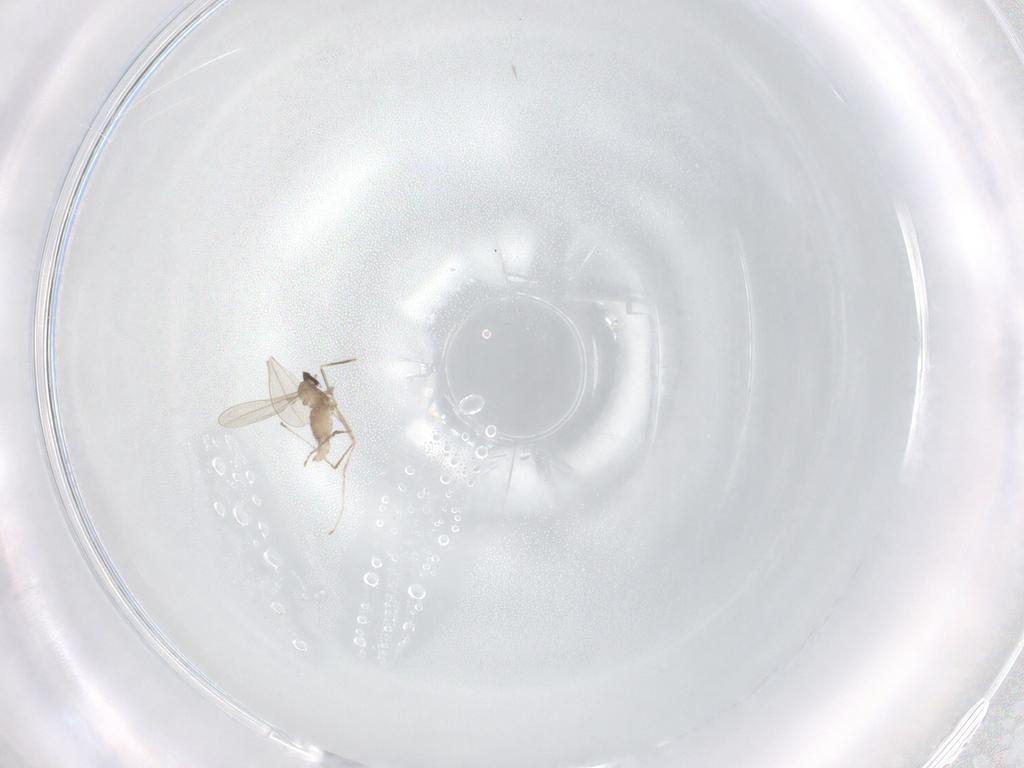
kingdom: Animalia
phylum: Arthropoda
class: Insecta
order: Diptera
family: Cecidomyiidae
